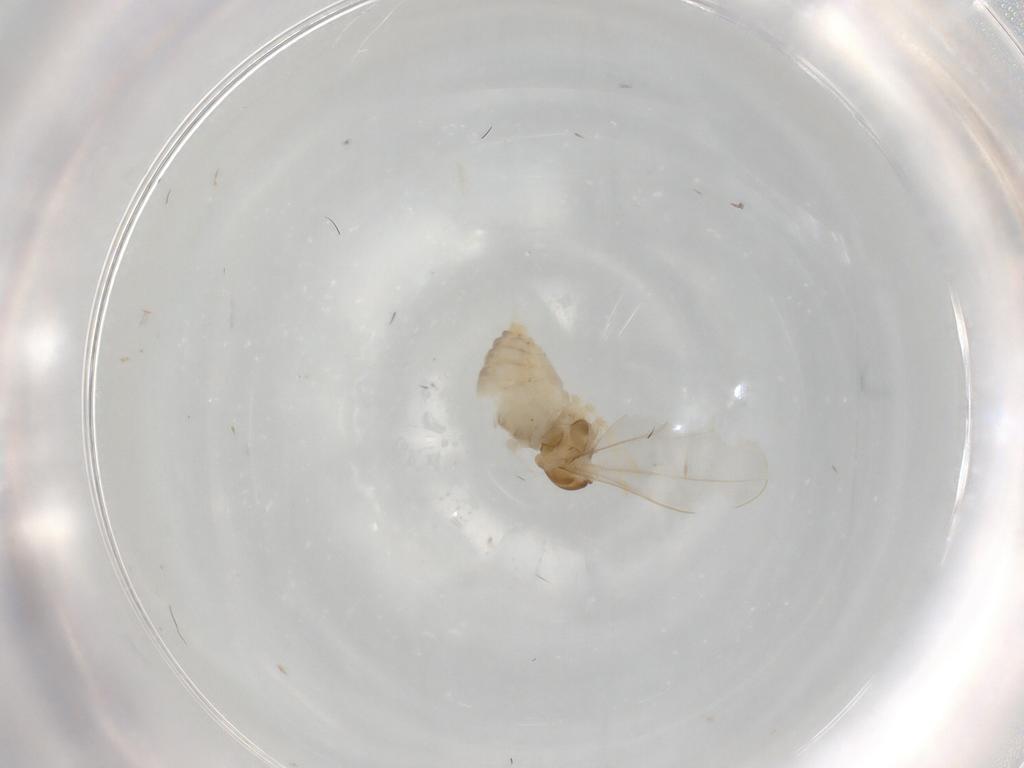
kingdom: Animalia
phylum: Arthropoda
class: Insecta
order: Diptera
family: Cecidomyiidae
